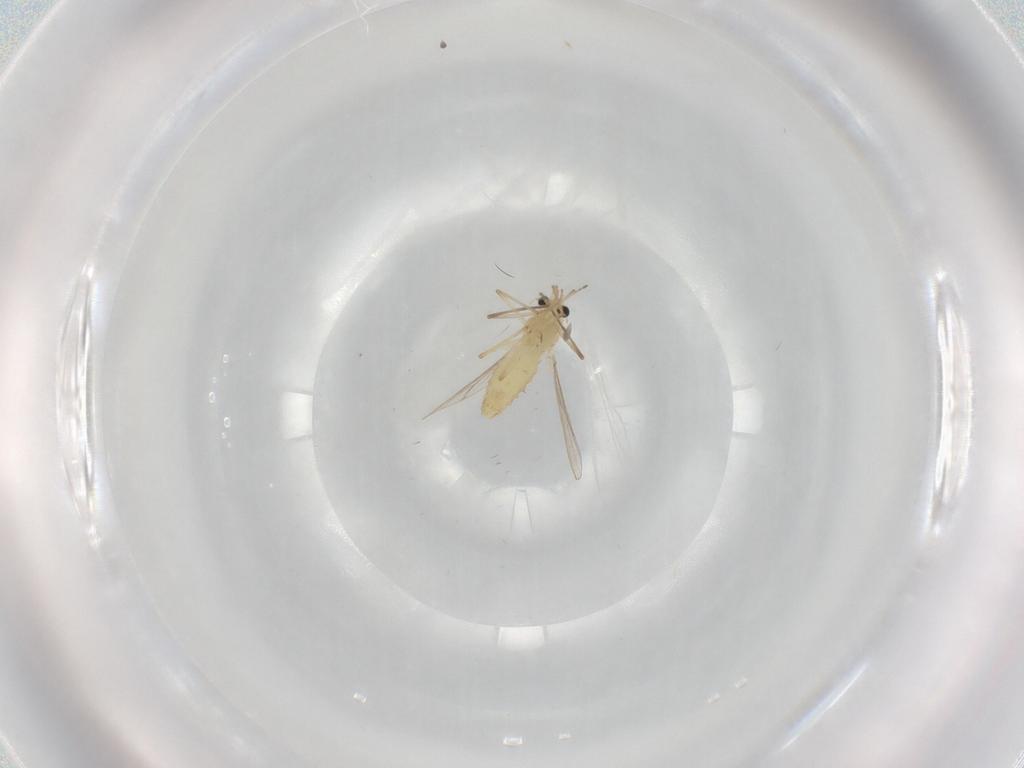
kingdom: Animalia
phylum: Arthropoda
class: Insecta
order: Diptera
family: Chironomidae
